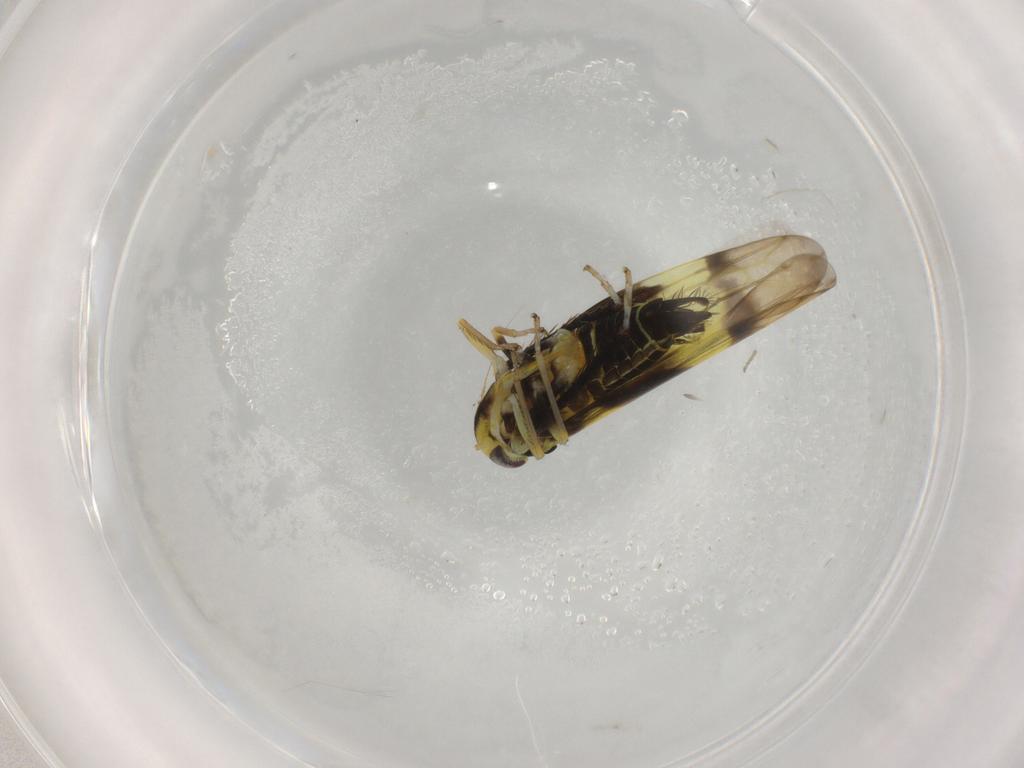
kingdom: Animalia
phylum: Arthropoda
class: Insecta
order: Hemiptera
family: Cicadellidae
